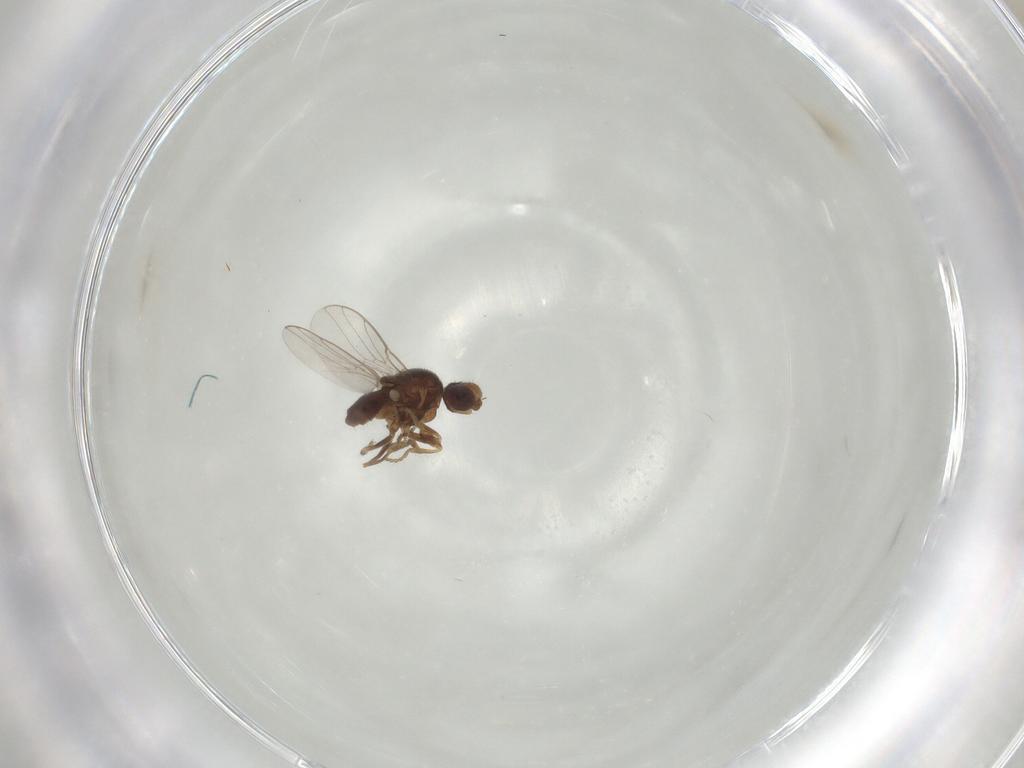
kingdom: Animalia
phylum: Arthropoda
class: Insecta
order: Diptera
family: Chloropidae
